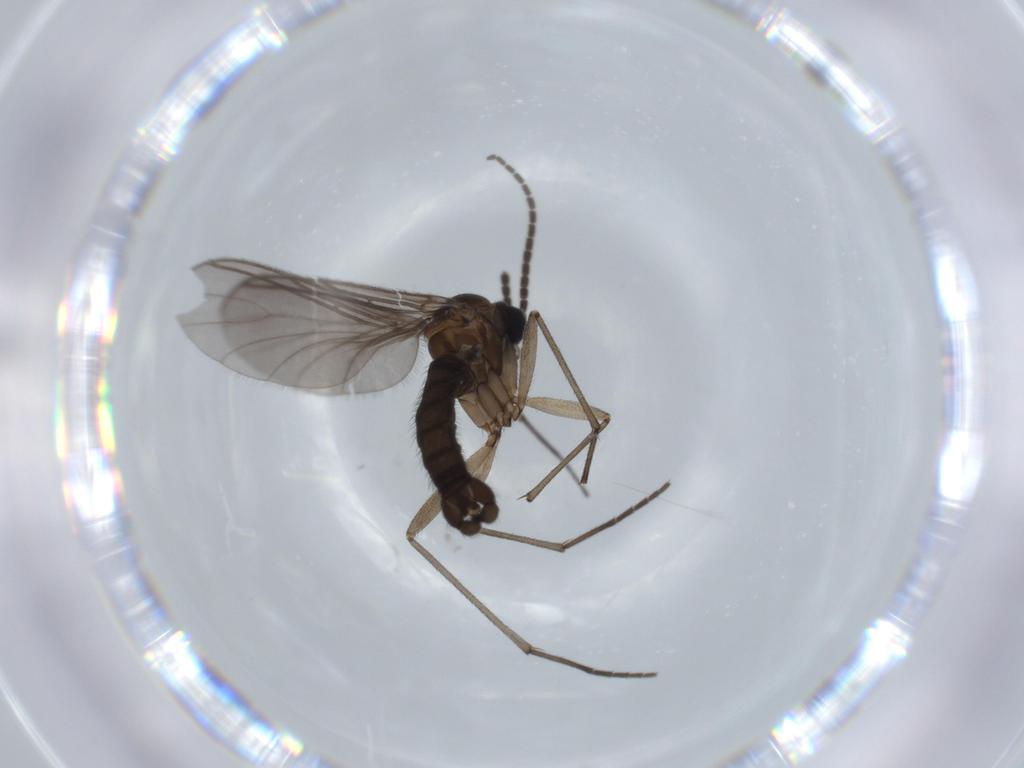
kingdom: Animalia
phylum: Arthropoda
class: Insecta
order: Diptera
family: Sciaridae
